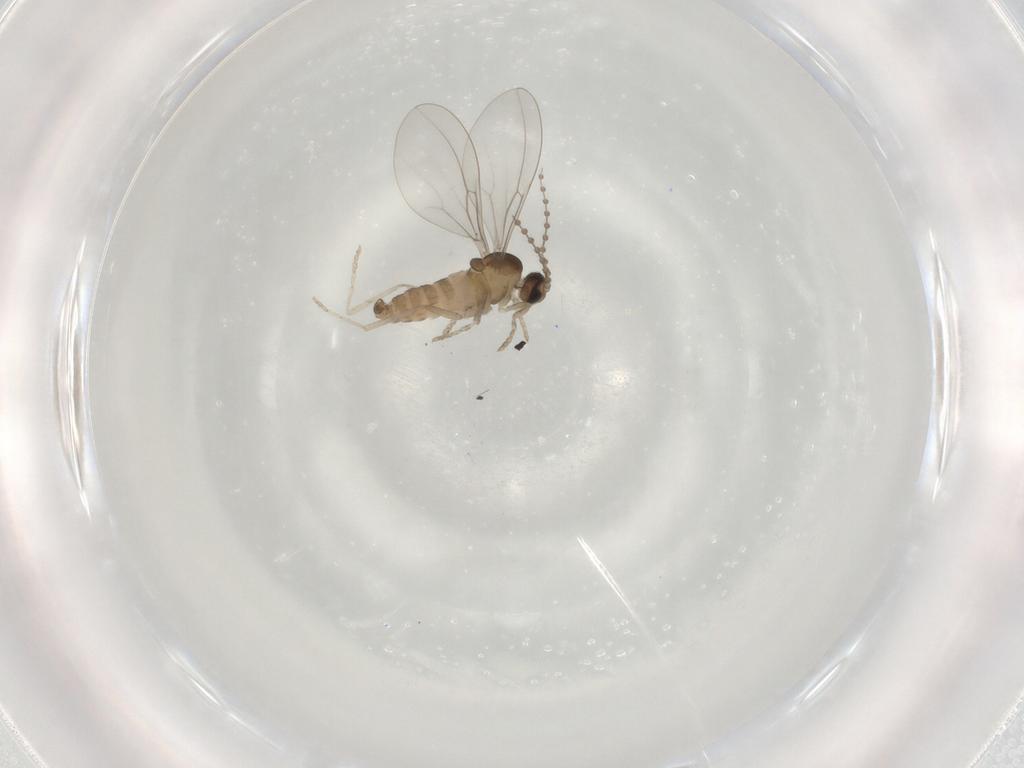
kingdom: Animalia
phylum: Arthropoda
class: Insecta
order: Diptera
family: Cecidomyiidae
